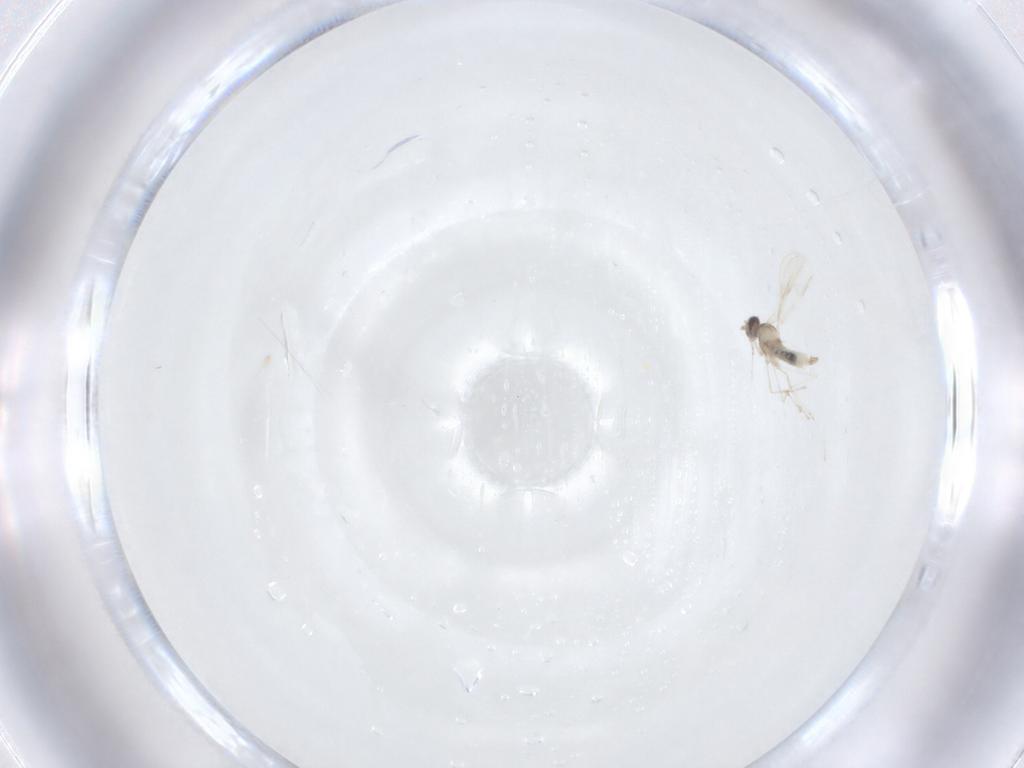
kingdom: Animalia
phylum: Arthropoda
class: Insecta
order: Diptera
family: Cecidomyiidae
